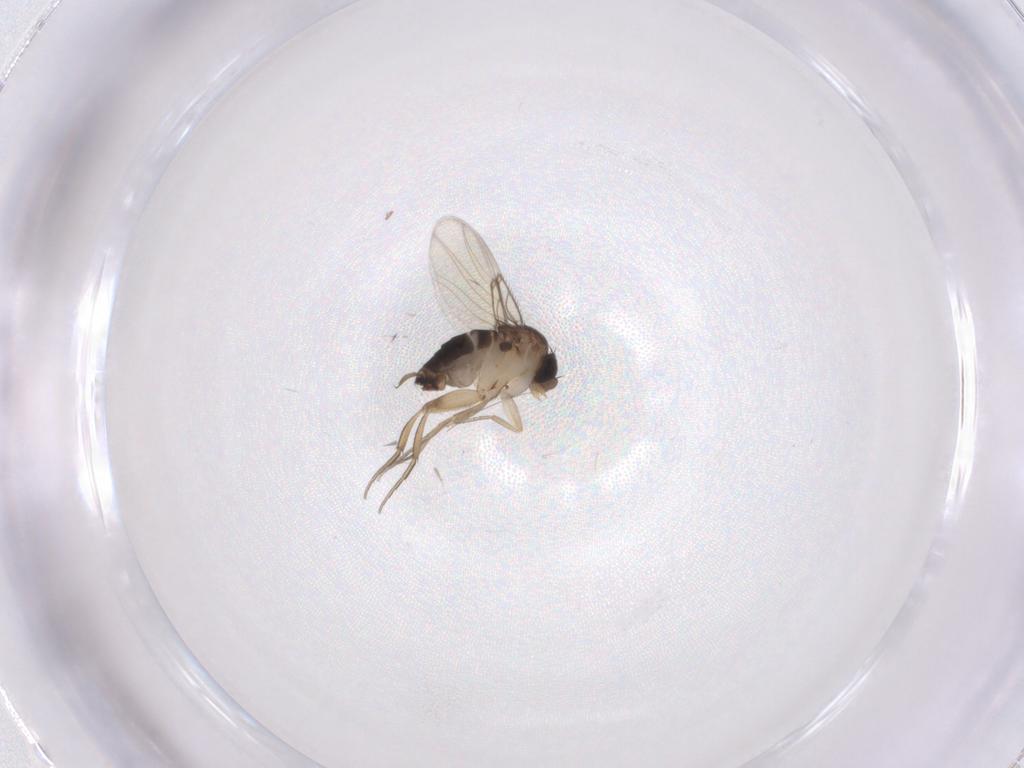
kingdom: Animalia
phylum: Arthropoda
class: Insecta
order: Diptera
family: Phoridae
